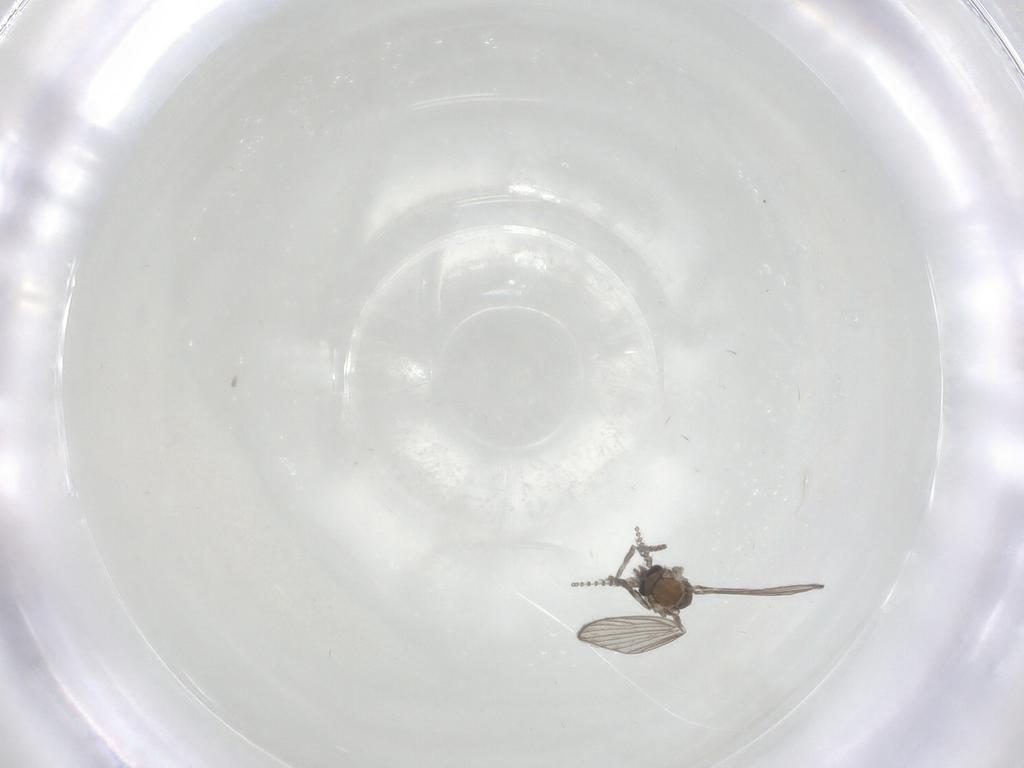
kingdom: Animalia
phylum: Arthropoda
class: Insecta
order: Diptera
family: Psychodidae
